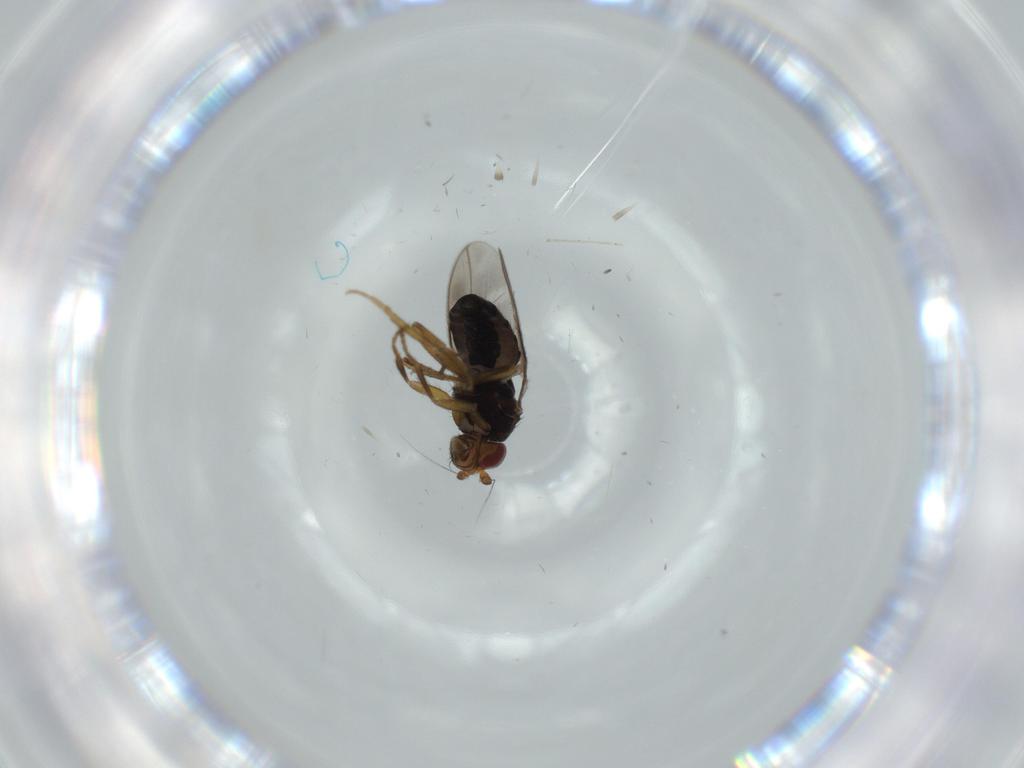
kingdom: Animalia
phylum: Arthropoda
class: Insecta
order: Diptera
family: Sphaeroceridae
